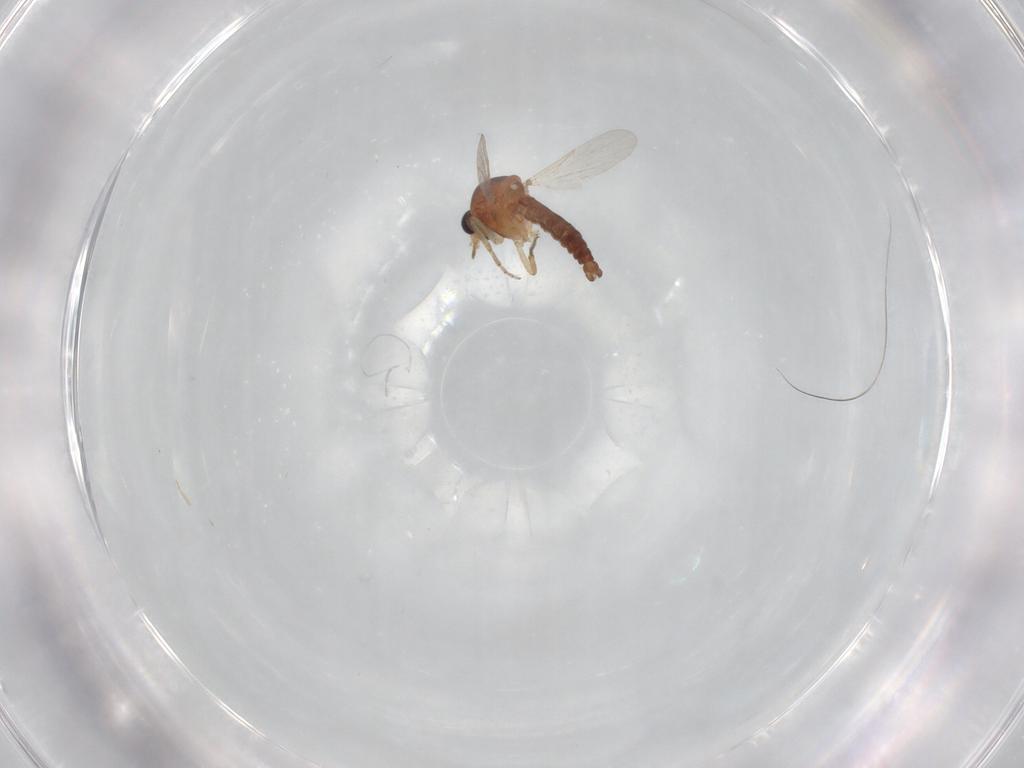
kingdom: Animalia
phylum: Arthropoda
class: Insecta
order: Diptera
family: Ceratopogonidae
